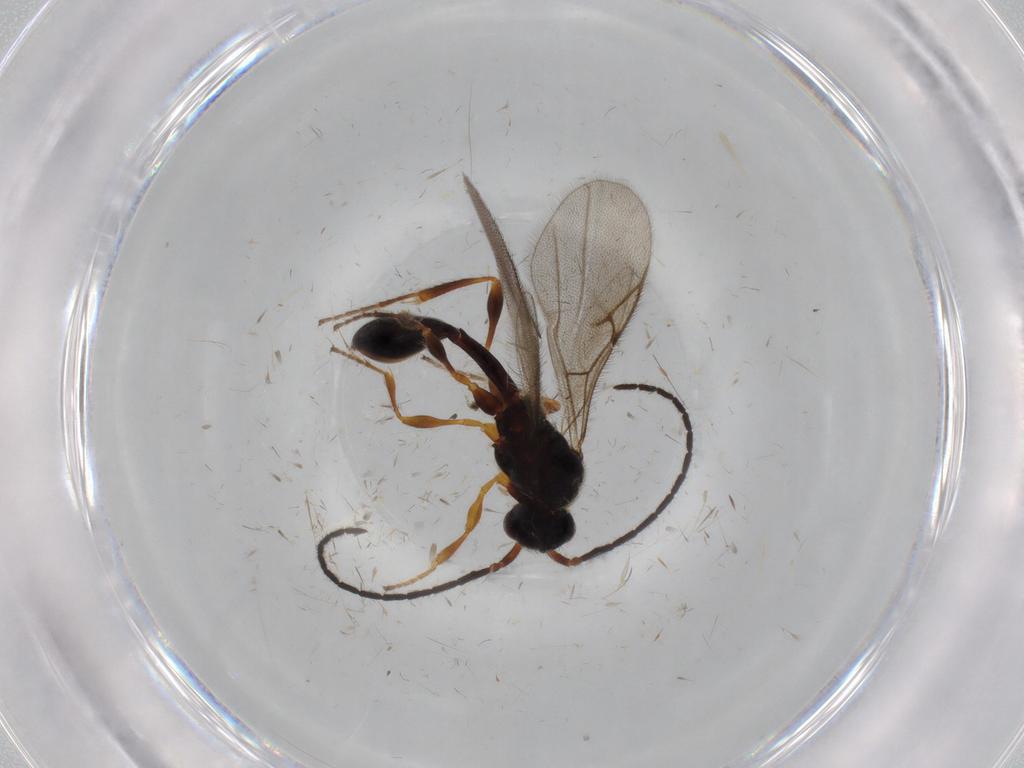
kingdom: Animalia
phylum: Arthropoda
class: Insecta
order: Hymenoptera
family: Diapriidae
